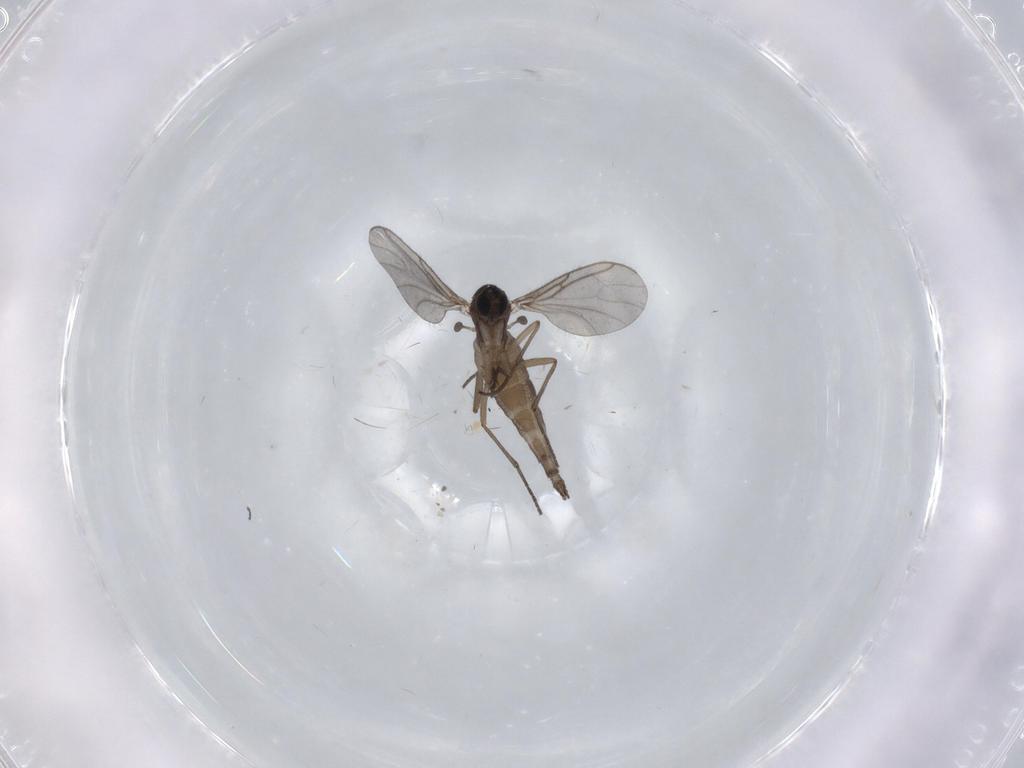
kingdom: Animalia
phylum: Arthropoda
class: Insecta
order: Diptera
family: Sciaridae
